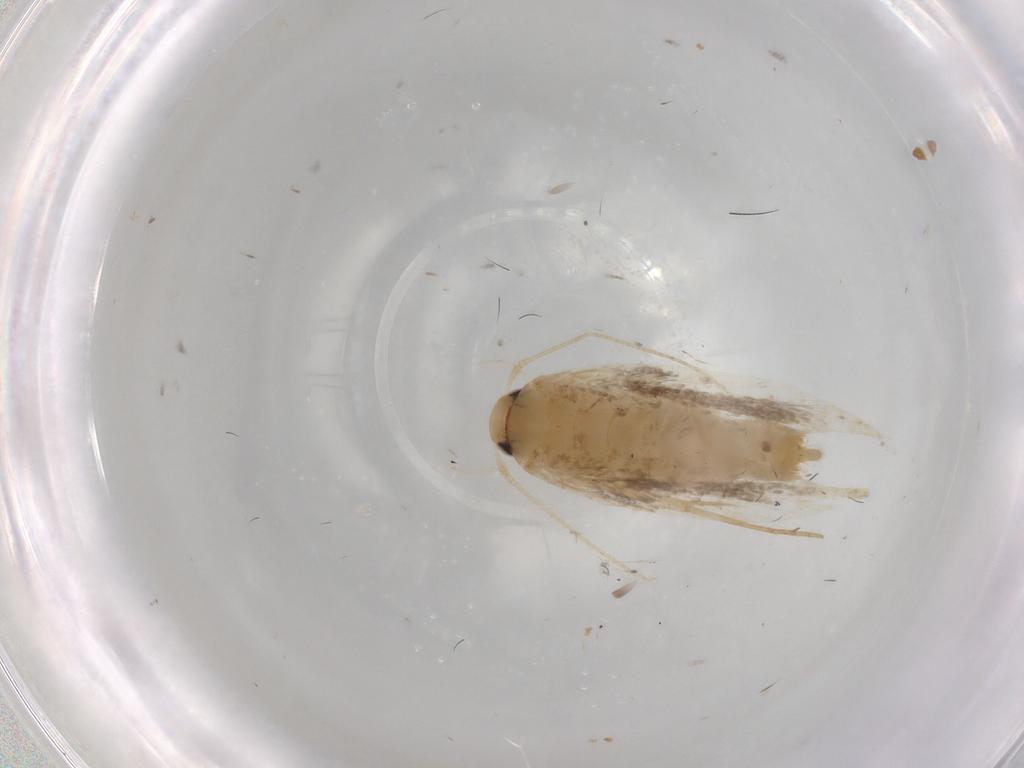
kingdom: Animalia
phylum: Arthropoda
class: Insecta
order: Lepidoptera
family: Gelechiidae
